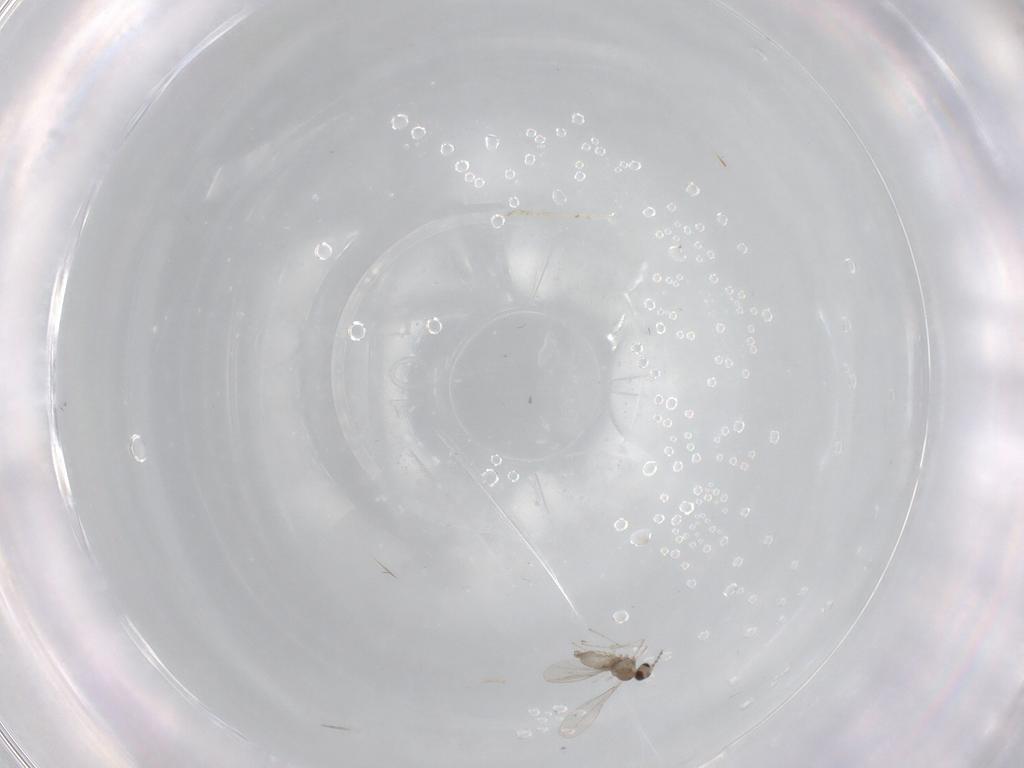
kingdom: Animalia
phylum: Arthropoda
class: Insecta
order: Diptera
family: Cecidomyiidae
